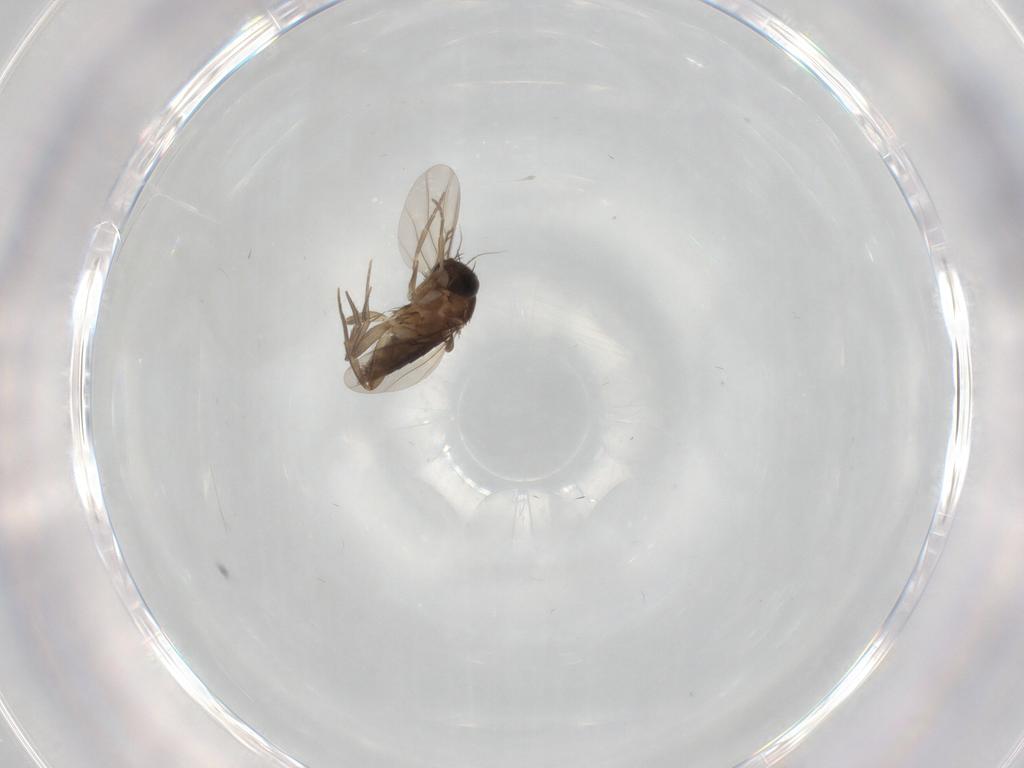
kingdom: Animalia
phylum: Arthropoda
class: Insecta
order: Diptera
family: Phoridae
